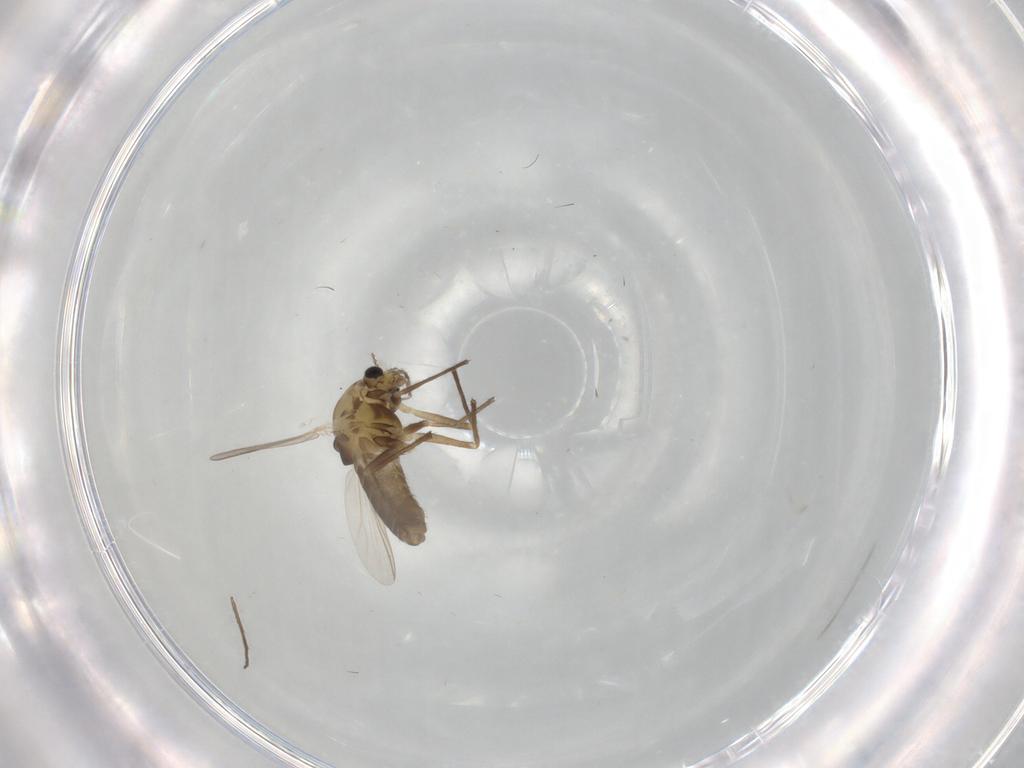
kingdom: Animalia
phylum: Arthropoda
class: Insecta
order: Diptera
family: Chironomidae
